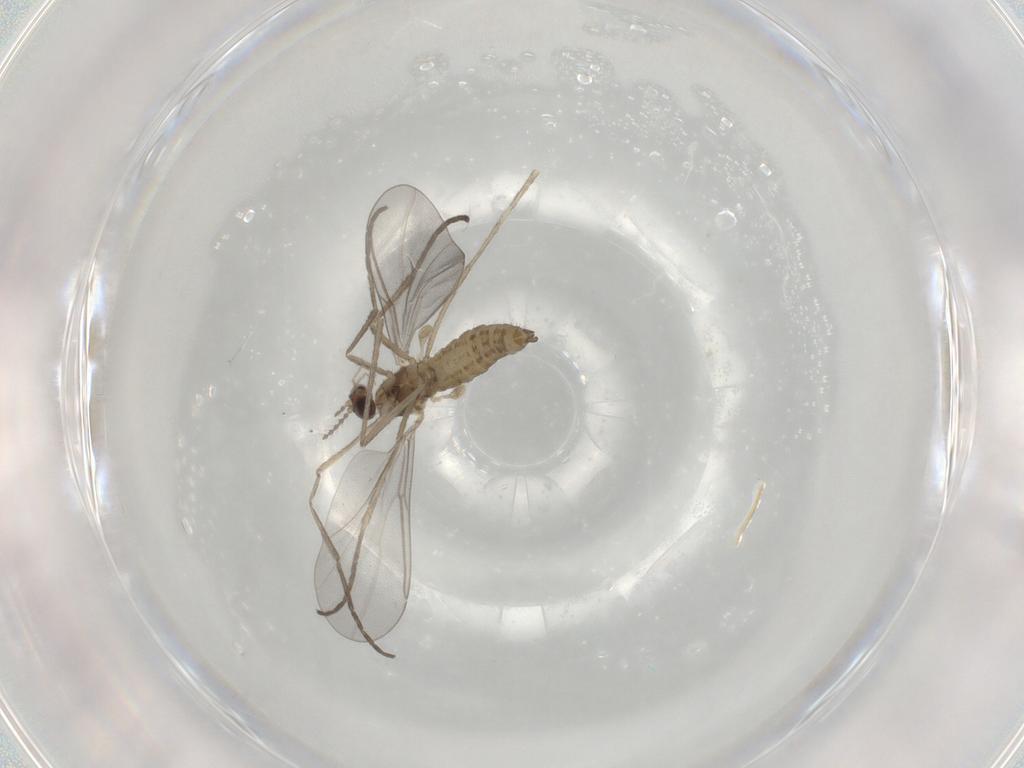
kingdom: Animalia
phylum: Arthropoda
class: Insecta
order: Diptera
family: Cecidomyiidae
